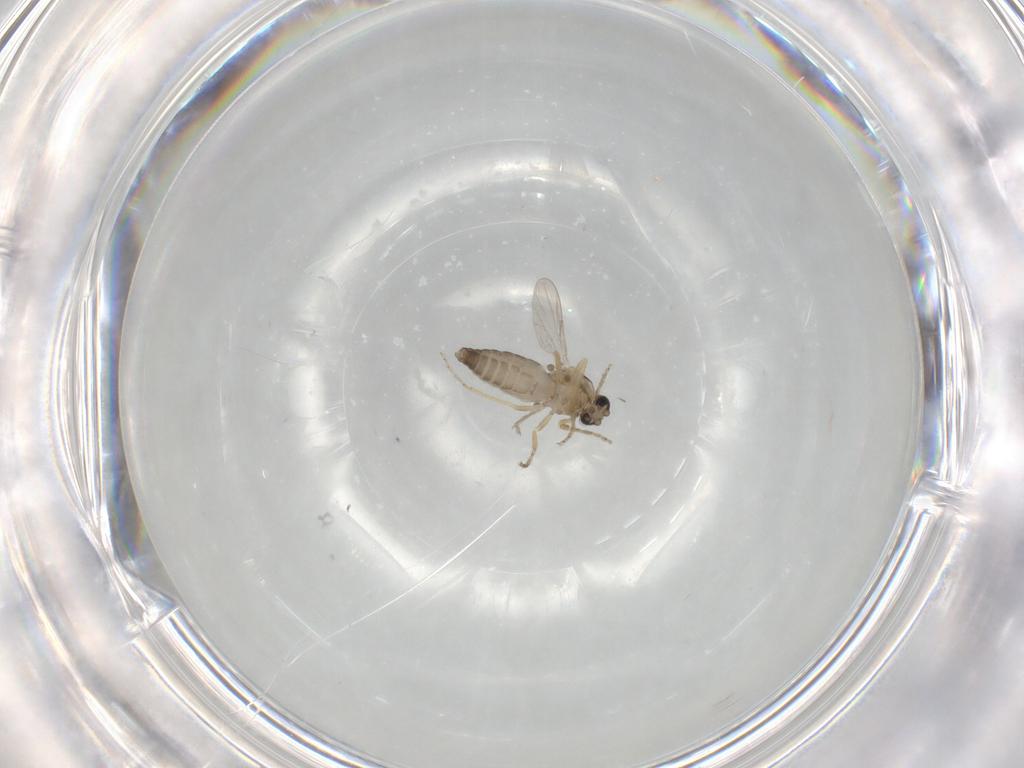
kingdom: Animalia
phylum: Arthropoda
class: Insecta
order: Diptera
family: Ceratopogonidae
